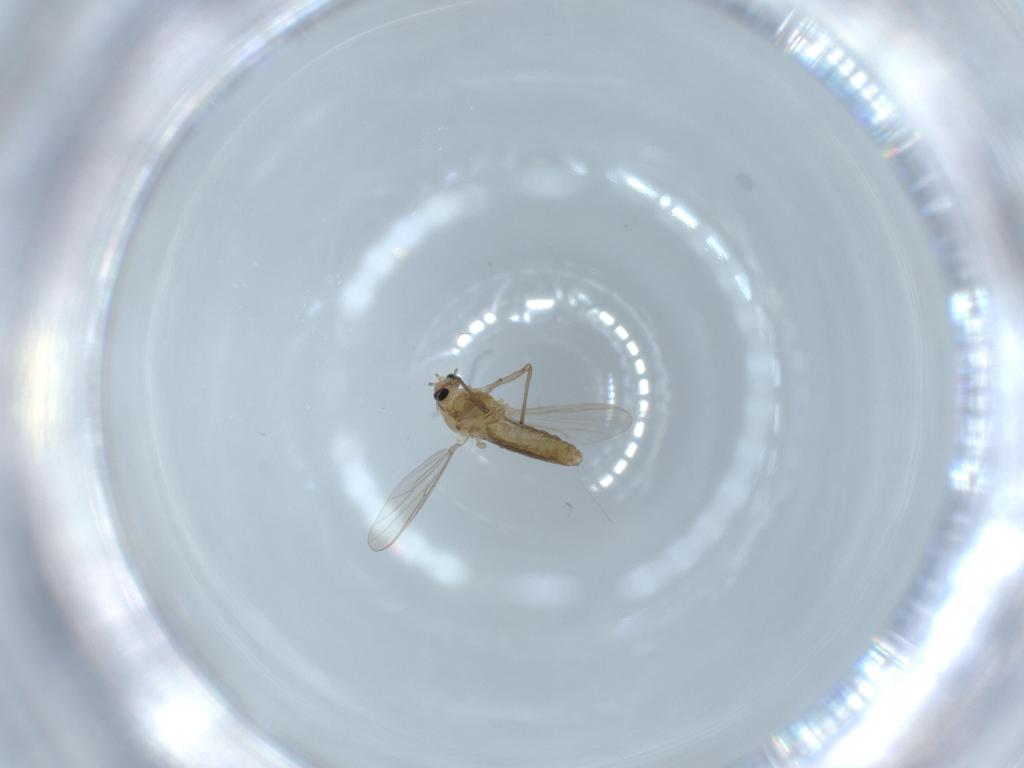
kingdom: Animalia
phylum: Arthropoda
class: Insecta
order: Diptera
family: Chironomidae
